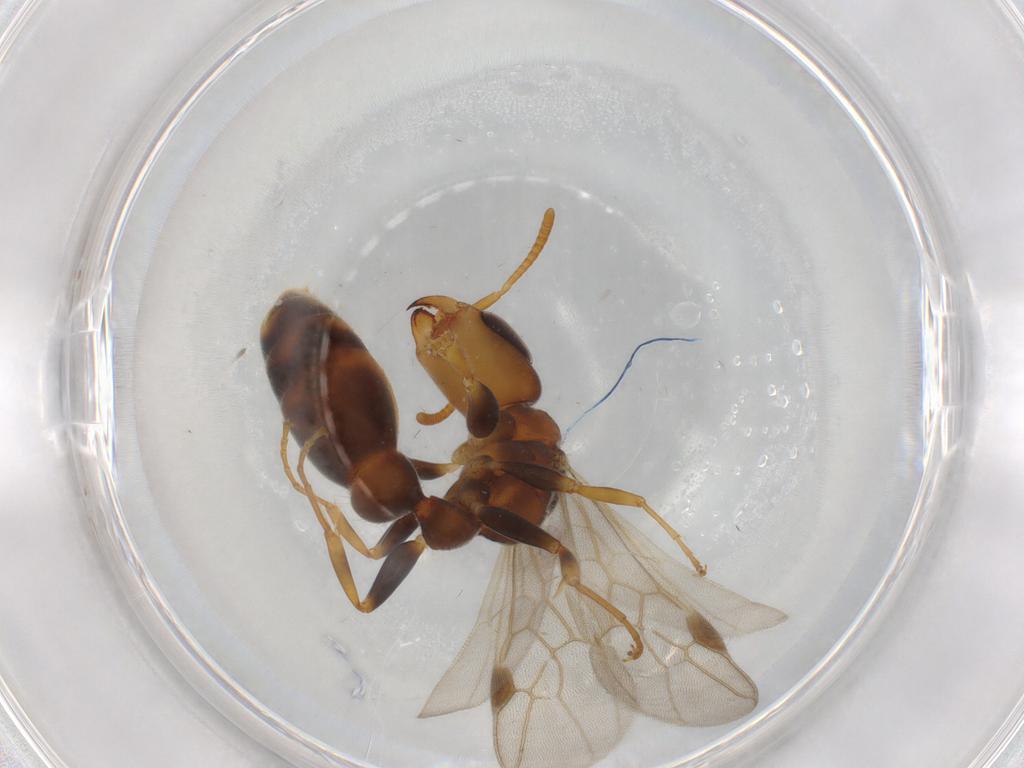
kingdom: Animalia
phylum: Arthropoda
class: Insecta
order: Hymenoptera
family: Formicidae
